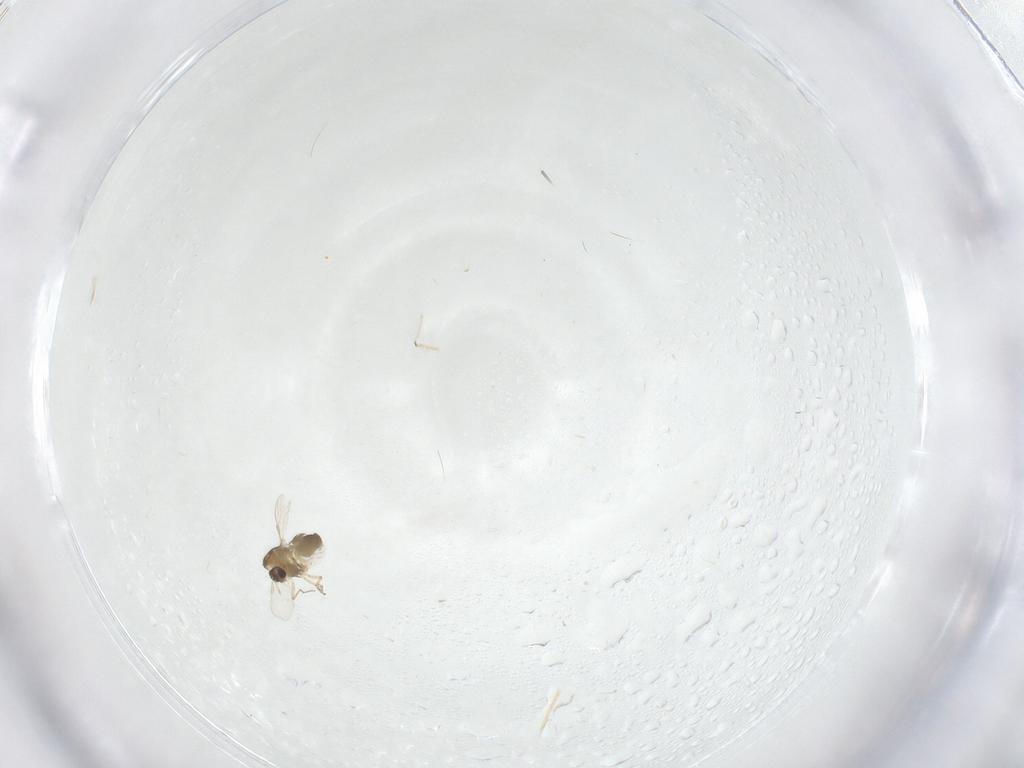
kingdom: Animalia
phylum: Arthropoda
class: Insecta
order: Diptera
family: Chironomidae
